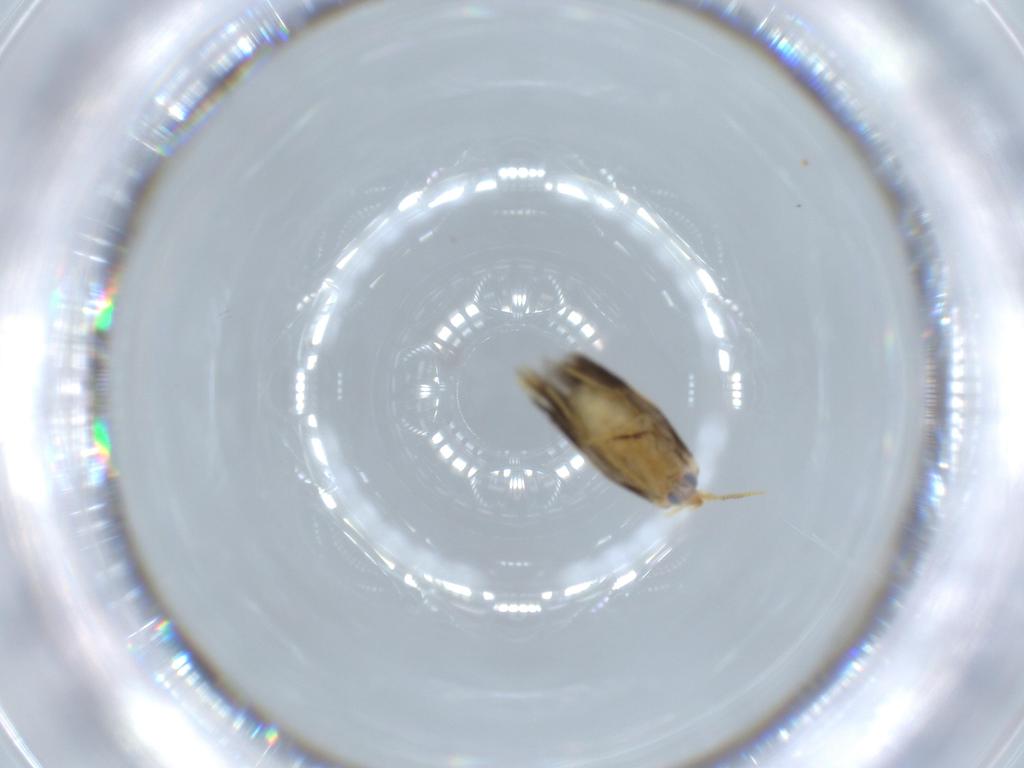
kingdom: Animalia
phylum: Arthropoda
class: Insecta
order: Lepidoptera
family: Copromorphidae
